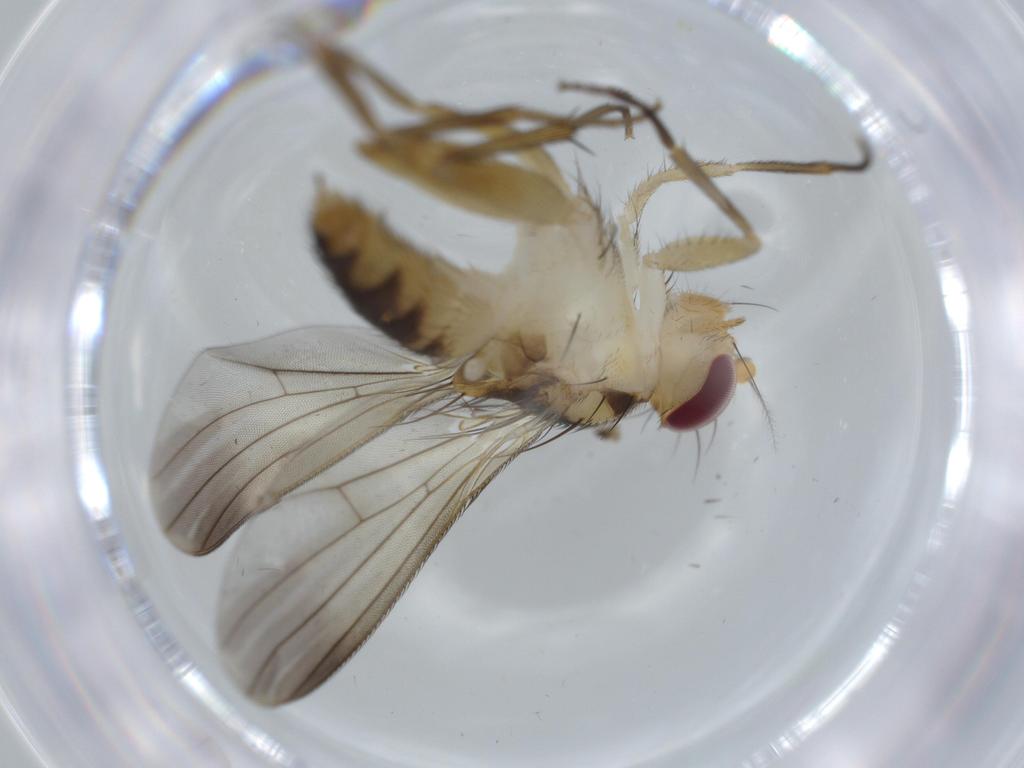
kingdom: Animalia
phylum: Arthropoda
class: Insecta
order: Diptera
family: Clusiidae
